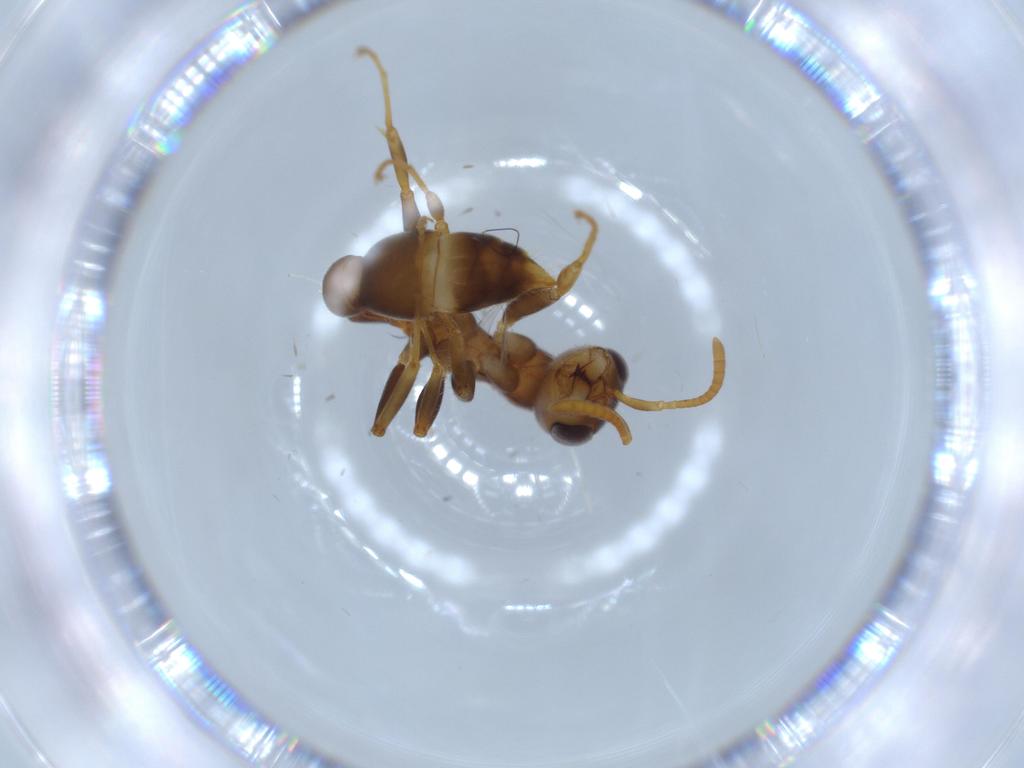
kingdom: Animalia
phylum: Arthropoda
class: Insecta
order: Hymenoptera
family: Formicidae
